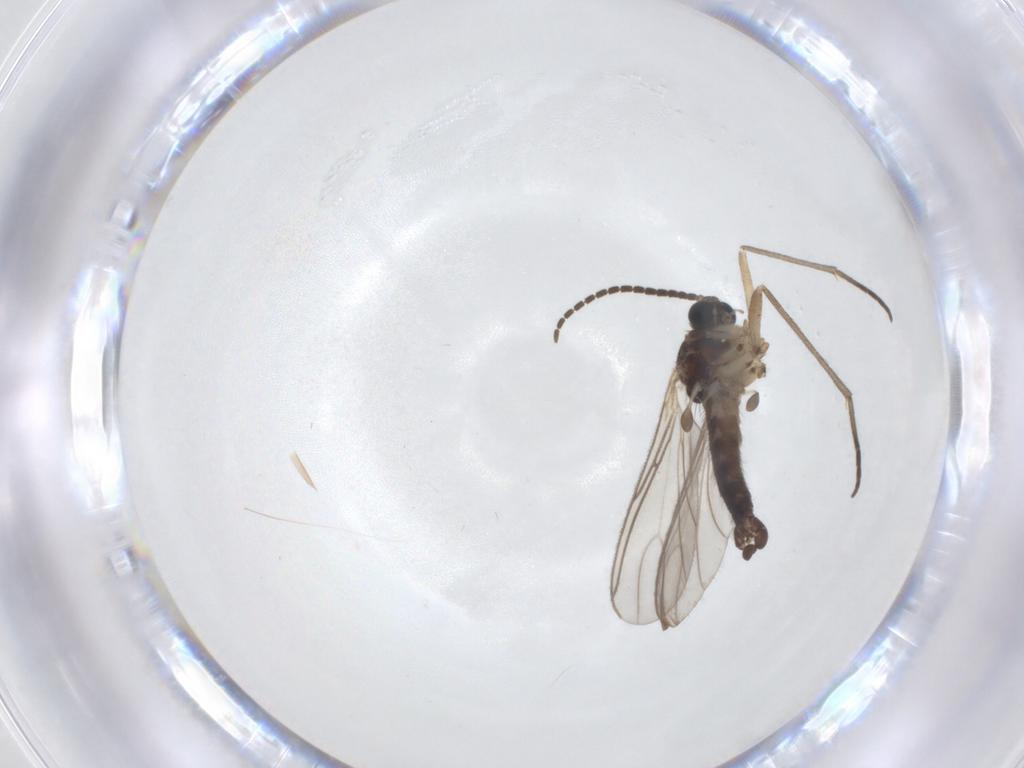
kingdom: Animalia
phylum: Arthropoda
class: Insecta
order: Diptera
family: Sciaridae
